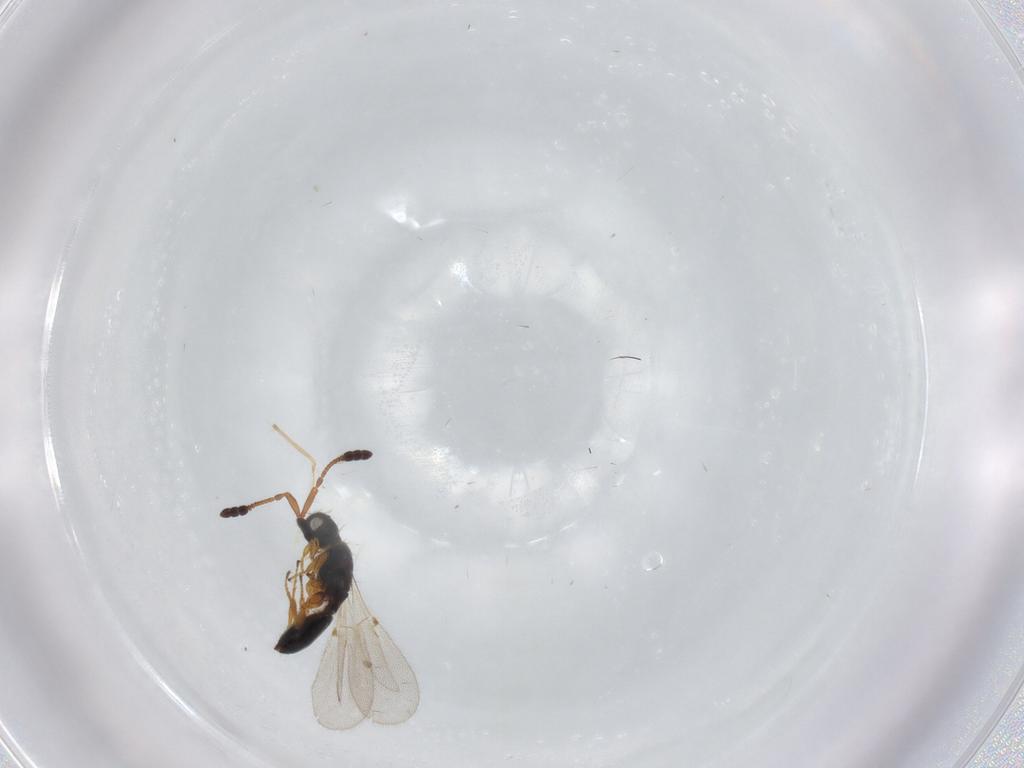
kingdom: Animalia
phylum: Arthropoda
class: Insecta
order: Hymenoptera
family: Diapriidae
